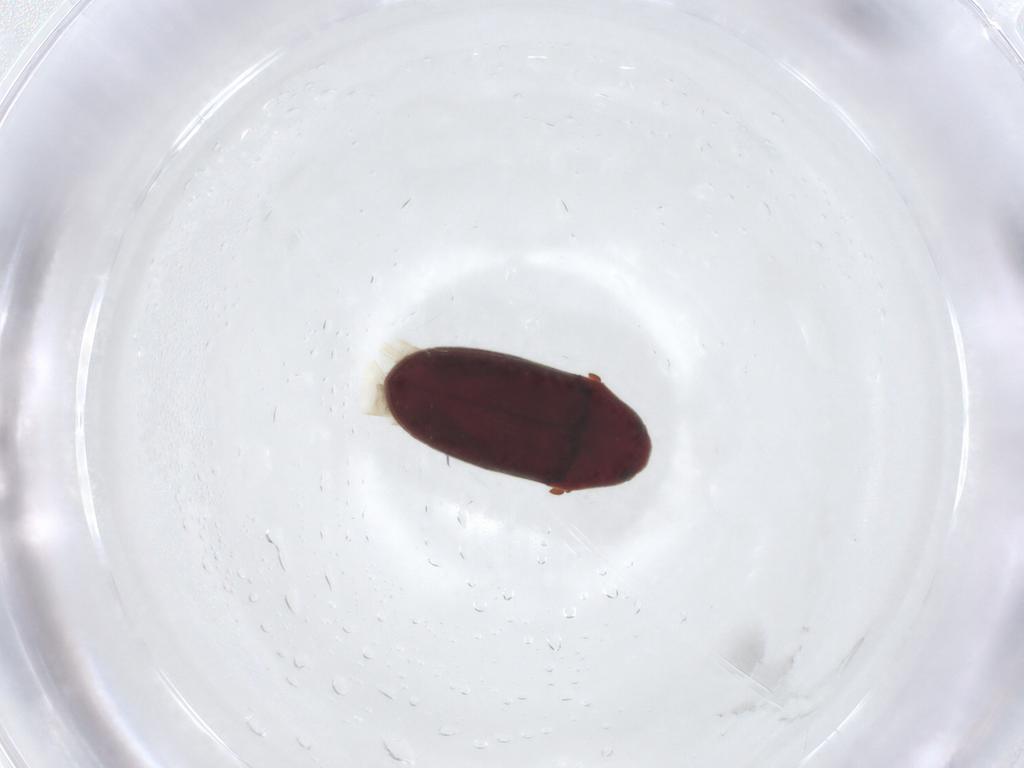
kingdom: Animalia
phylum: Arthropoda
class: Insecta
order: Coleoptera
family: Throscidae
